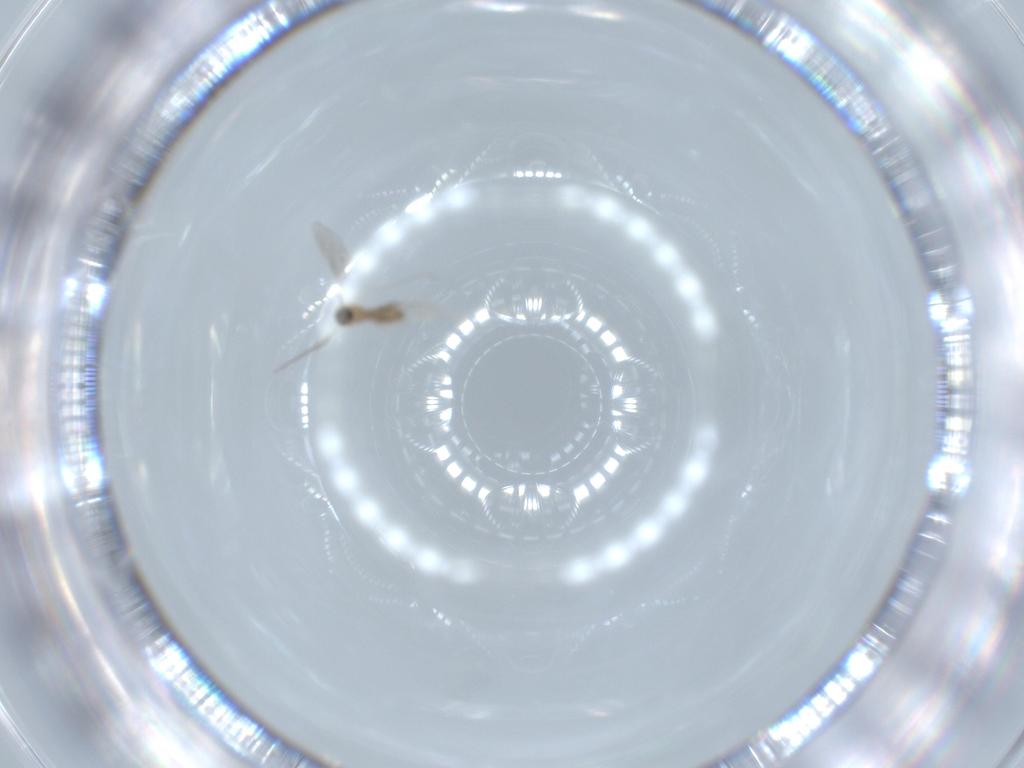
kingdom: Animalia
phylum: Arthropoda
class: Insecta
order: Diptera
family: Cecidomyiidae
